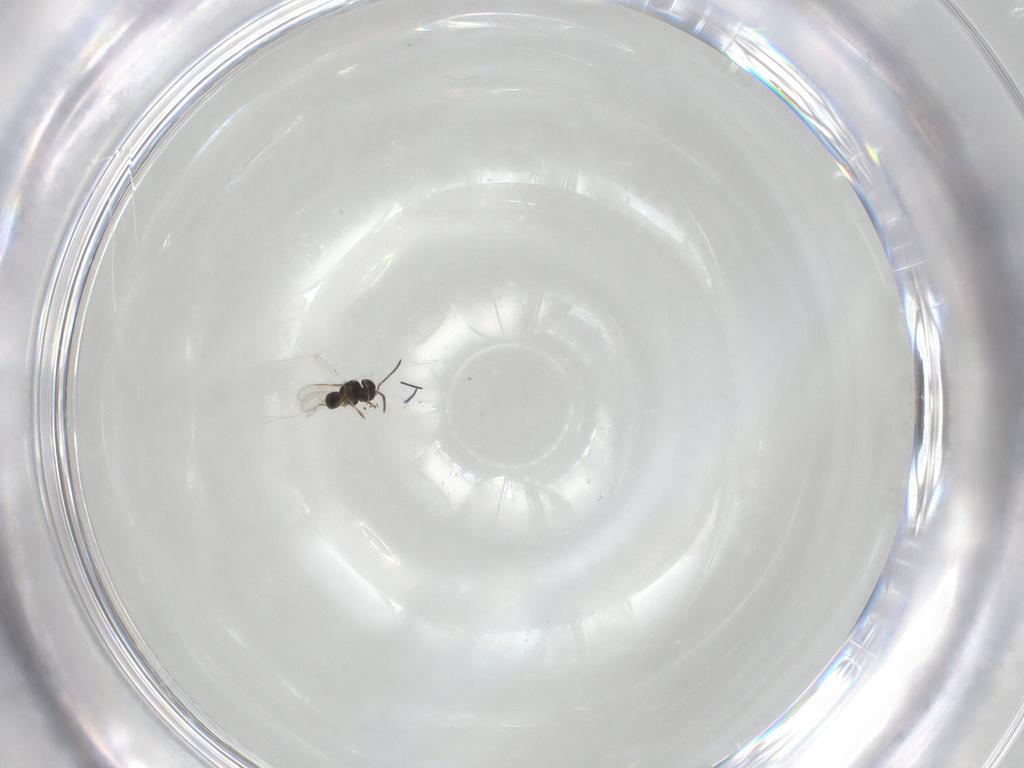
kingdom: Animalia
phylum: Arthropoda
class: Insecta
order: Hymenoptera
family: Scelionidae
